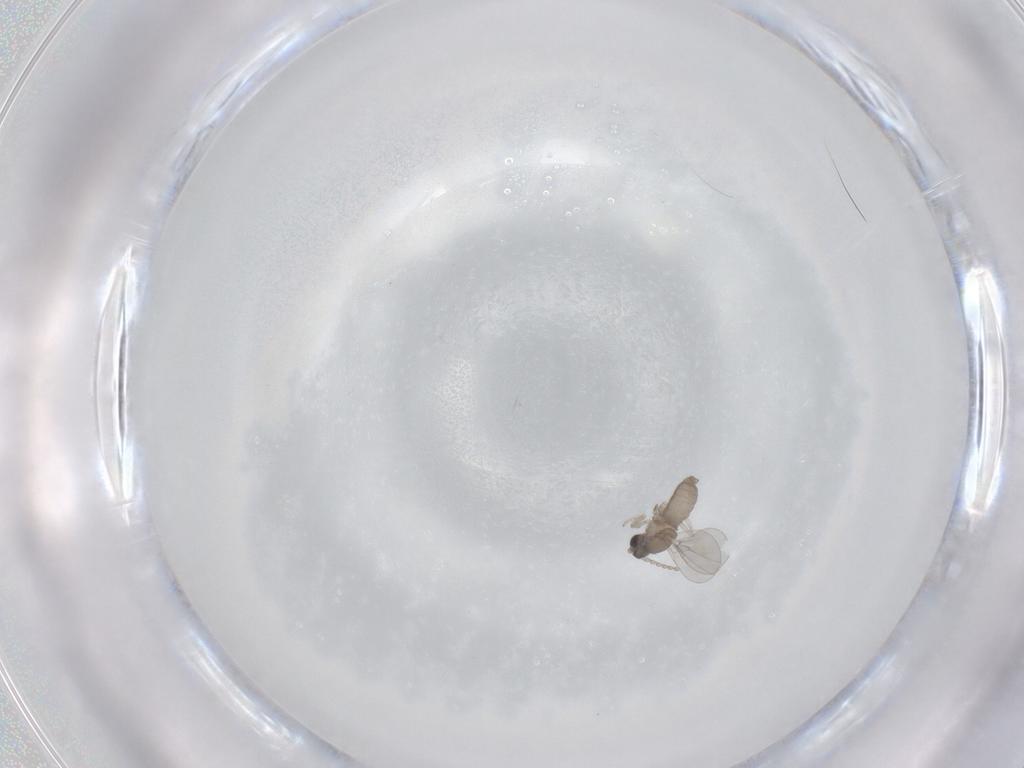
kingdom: Animalia
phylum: Arthropoda
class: Insecta
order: Diptera
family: Cecidomyiidae
